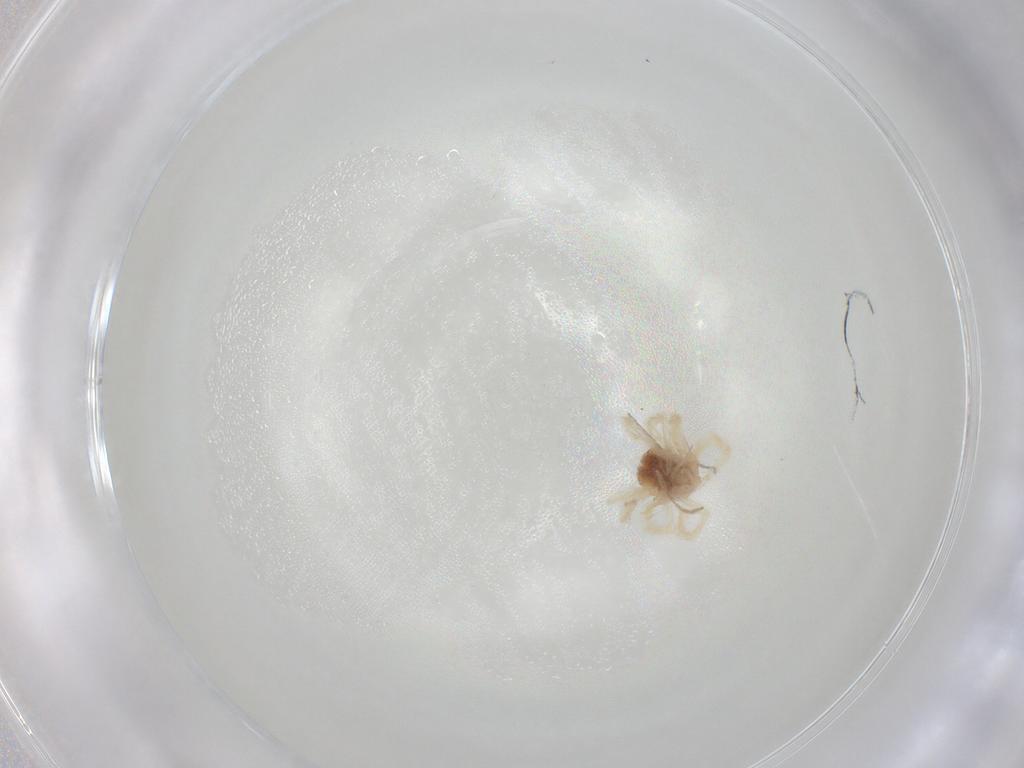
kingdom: Animalia
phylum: Arthropoda
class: Arachnida
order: Trombidiformes
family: Anystidae
